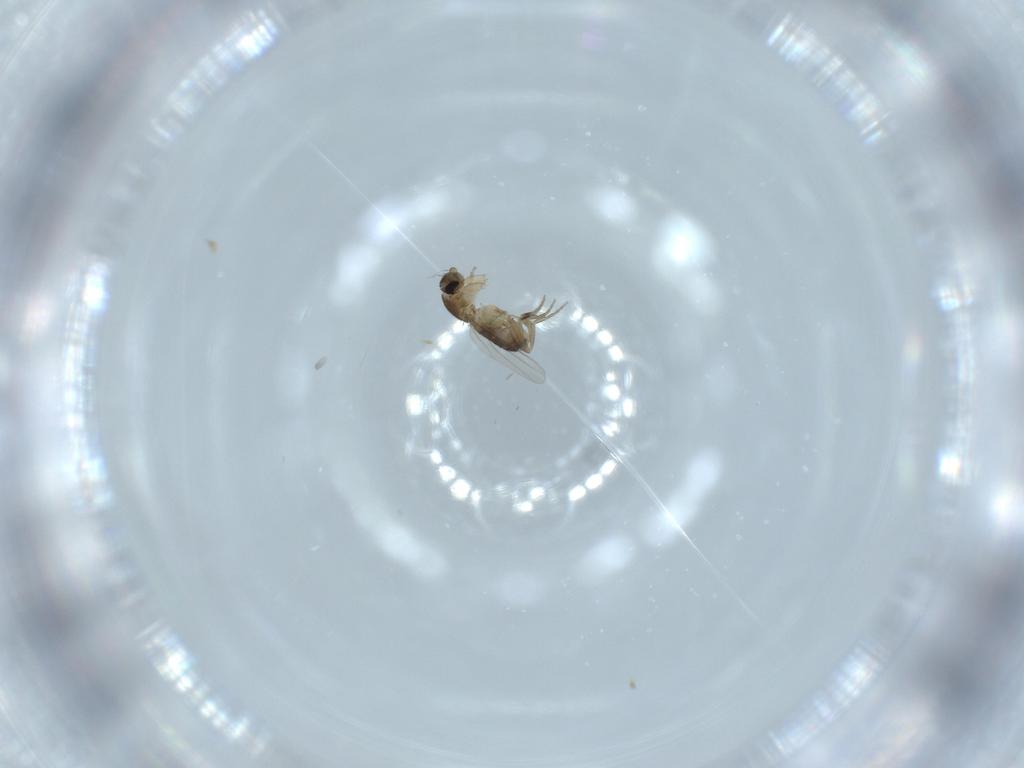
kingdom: Animalia
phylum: Arthropoda
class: Insecta
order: Diptera
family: Phoridae
